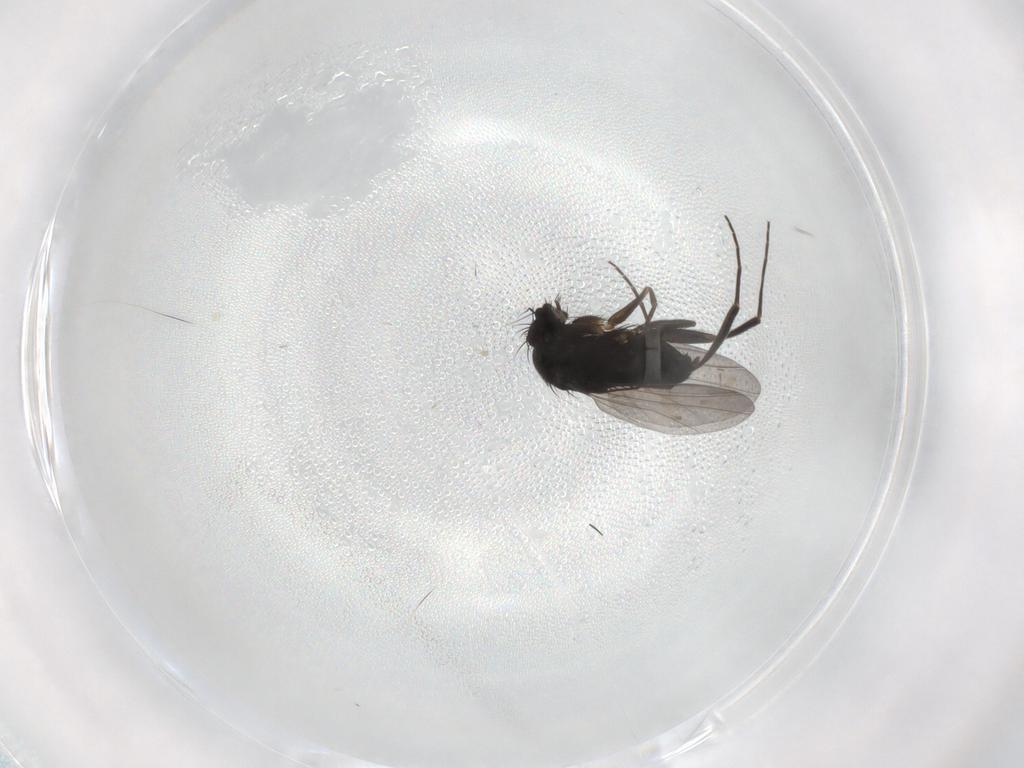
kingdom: Animalia
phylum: Arthropoda
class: Insecta
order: Diptera
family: Phoridae
